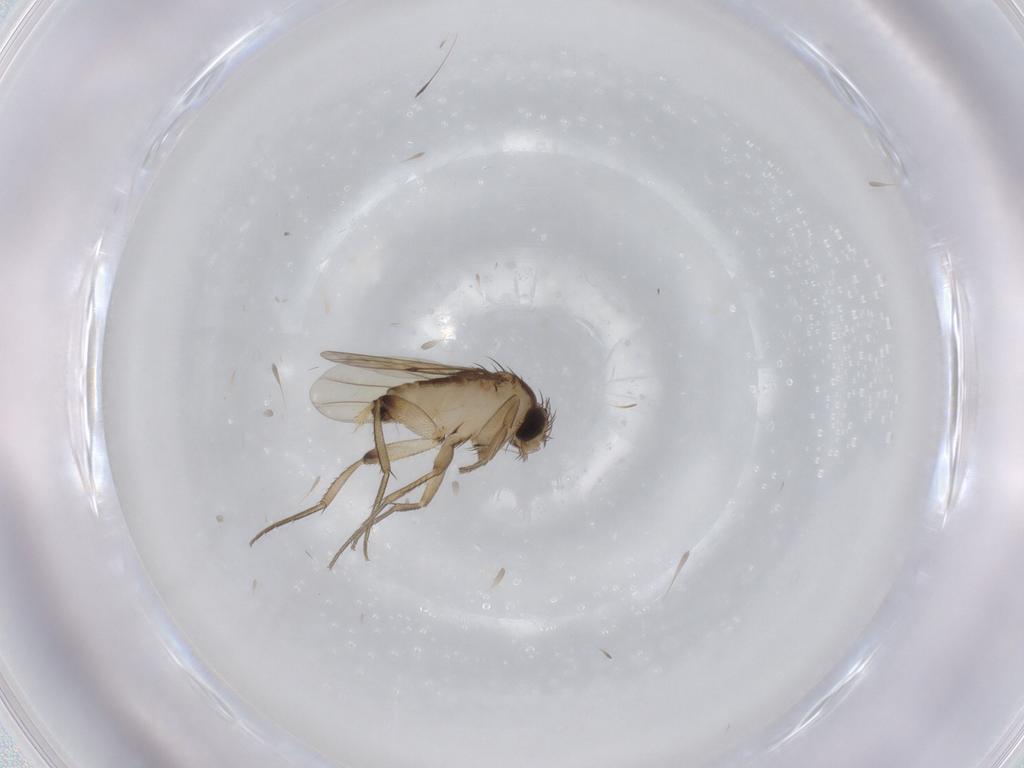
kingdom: Animalia
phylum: Arthropoda
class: Insecta
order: Diptera
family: Phoridae
